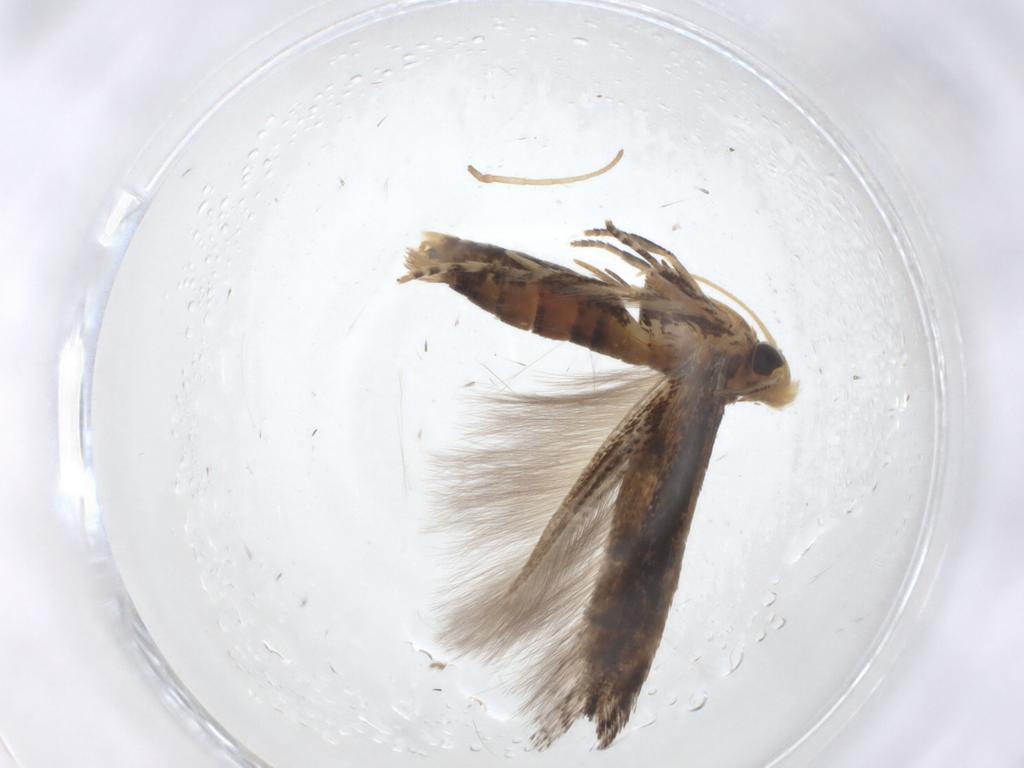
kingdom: Animalia
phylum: Arthropoda
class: Insecta
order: Lepidoptera
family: Gelechiidae
